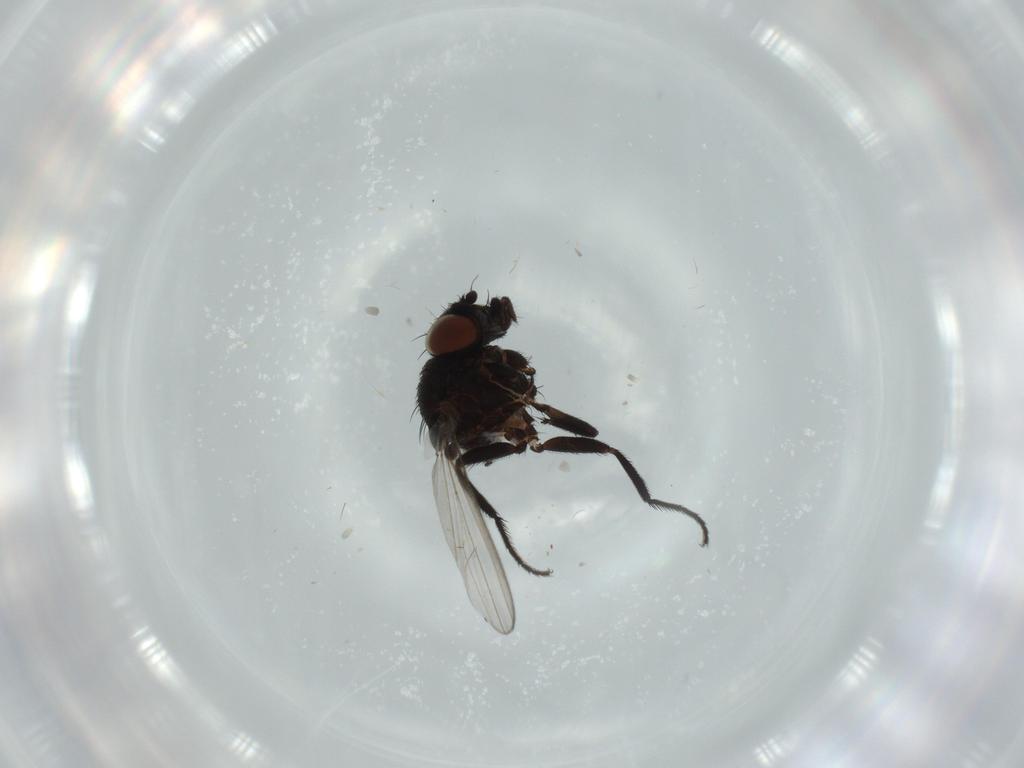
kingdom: Animalia
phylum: Arthropoda
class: Insecta
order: Diptera
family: Milichiidae
